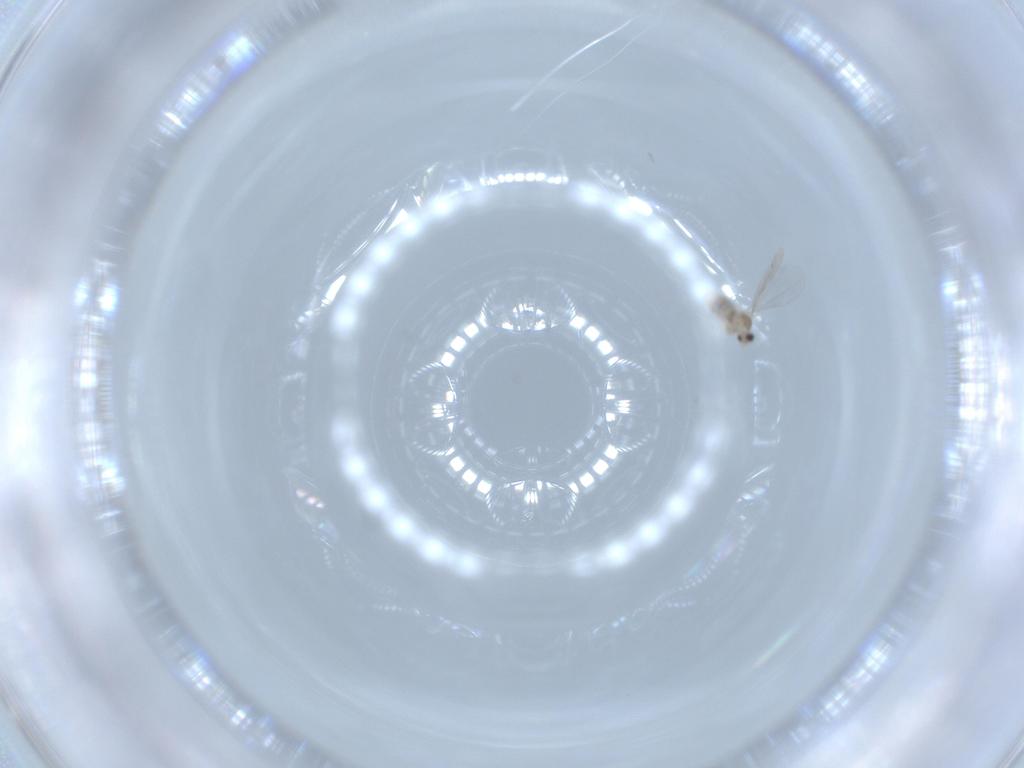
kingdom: Animalia
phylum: Arthropoda
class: Insecta
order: Diptera
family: Cecidomyiidae
